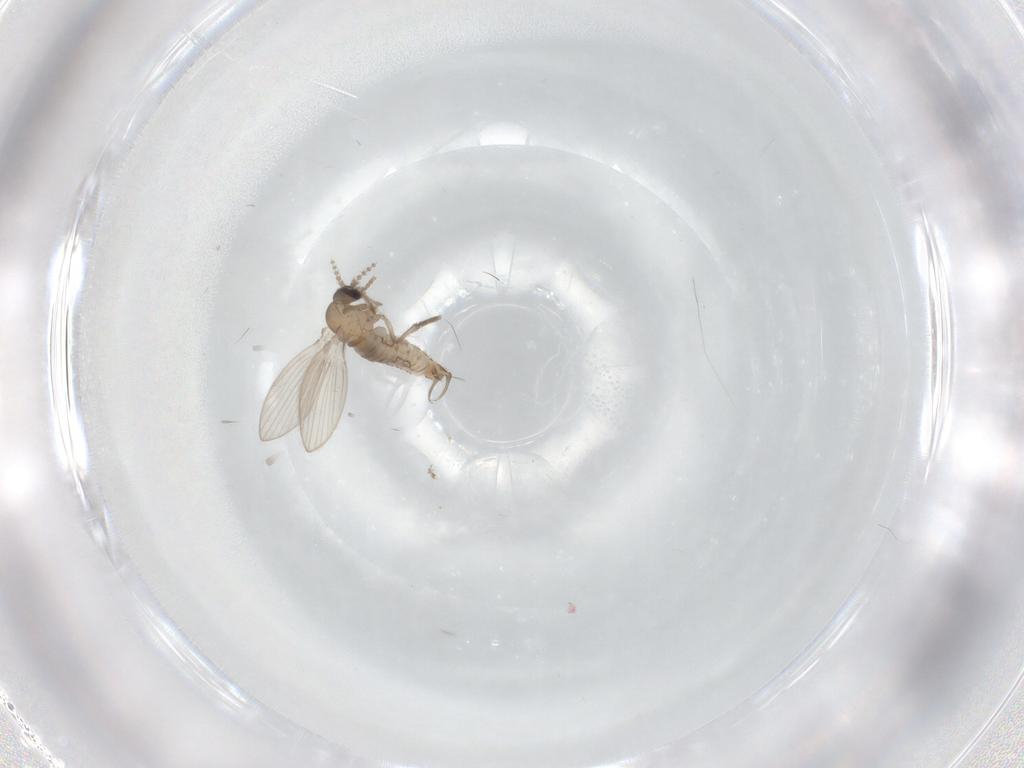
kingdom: Animalia
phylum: Arthropoda
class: Insecta
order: Diptera
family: Psychodidae
